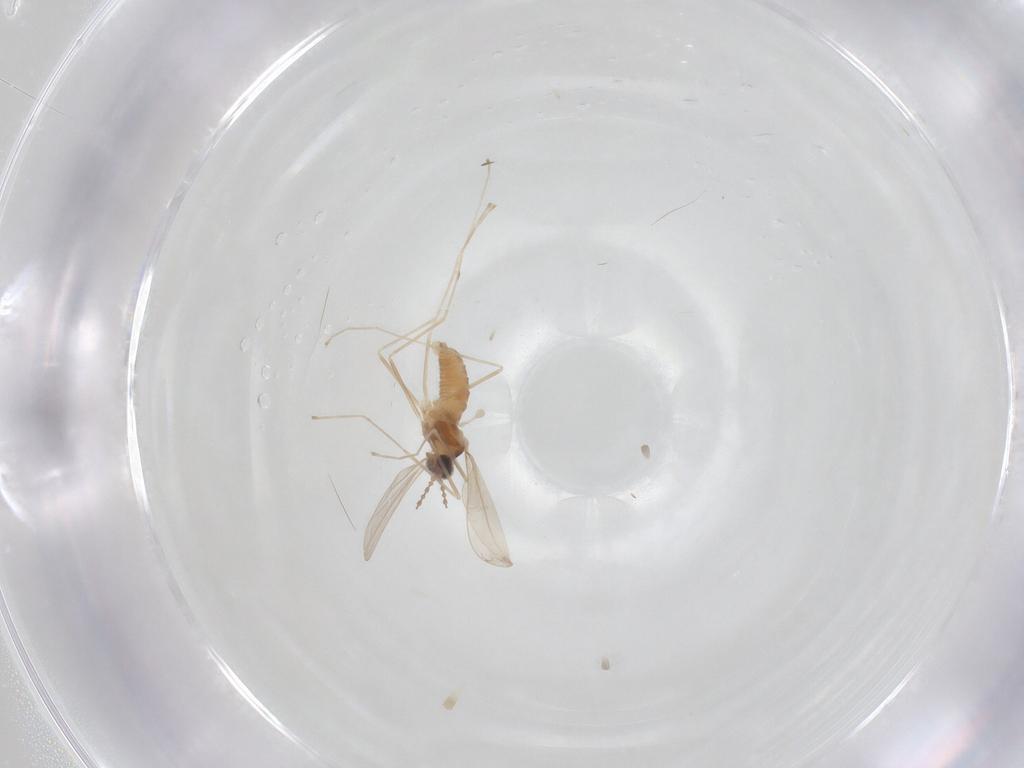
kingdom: Animalia
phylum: Arthropoda
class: Insecta
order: Diptera
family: Cecidomyiidae
